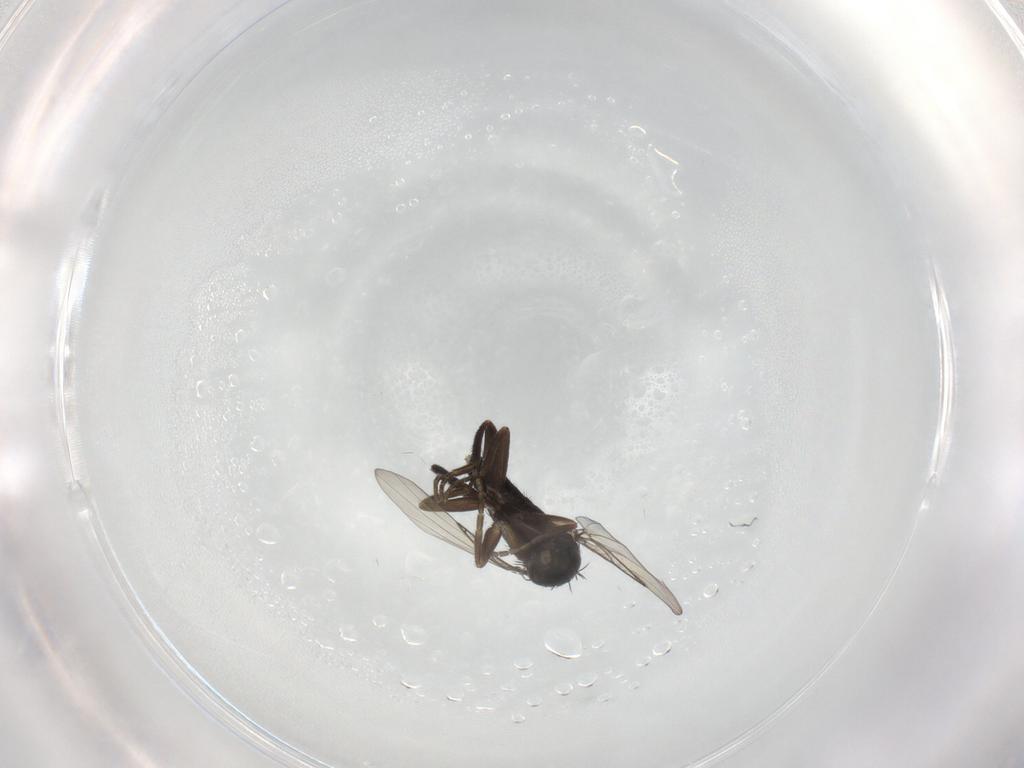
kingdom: Animalia
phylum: Arthropoda
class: Insecta
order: Diptera
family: Phoridae
